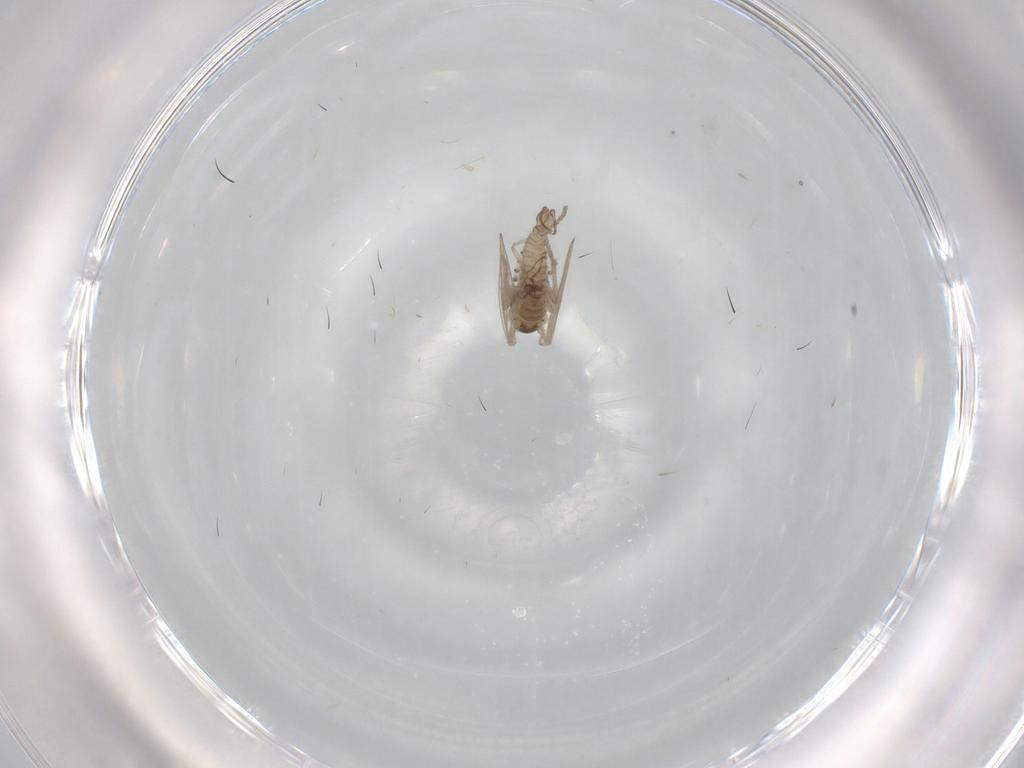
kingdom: Animalia
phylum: Arthropoda
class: Insecta
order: Diptera
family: Psychodidae
